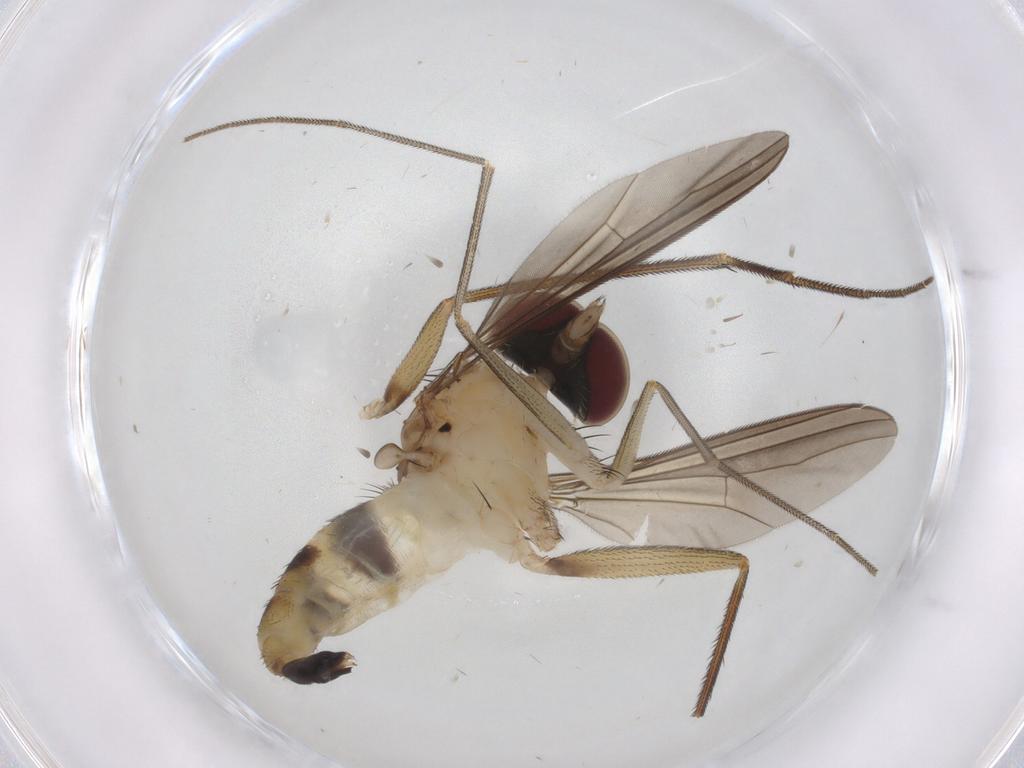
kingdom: Animalia
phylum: Arthropoda
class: Insecta
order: Diptera
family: Dolichopodidae
